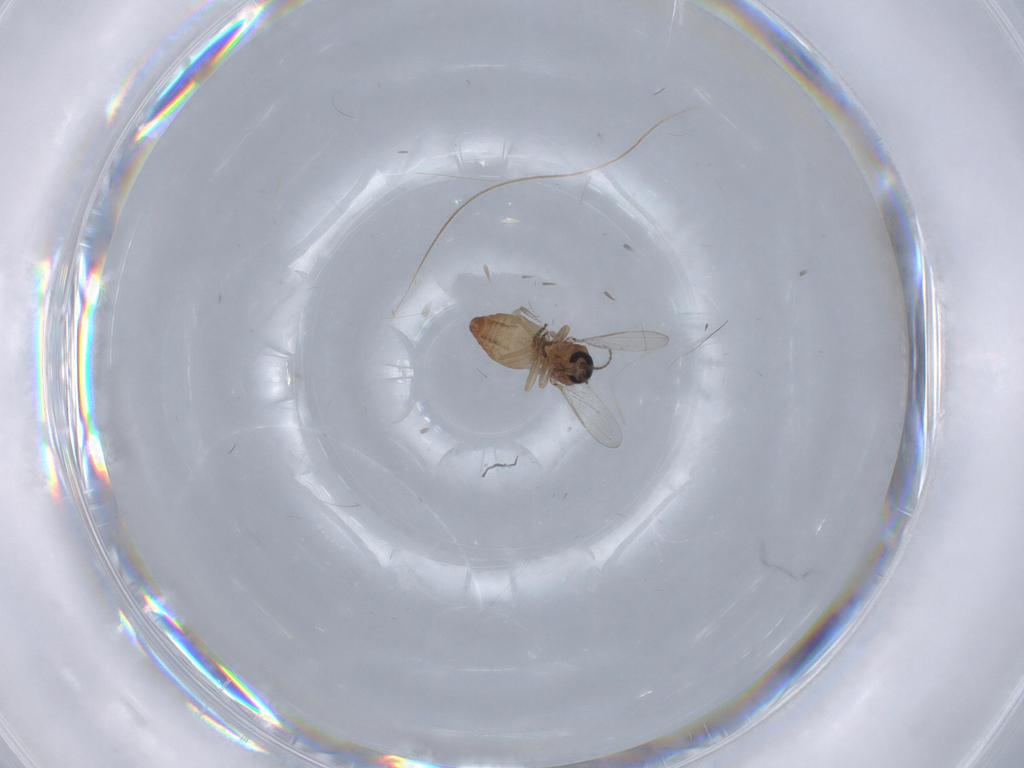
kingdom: Animalia
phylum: Arthropoda
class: Insecta
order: Diptera
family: Ceratopogonidae
